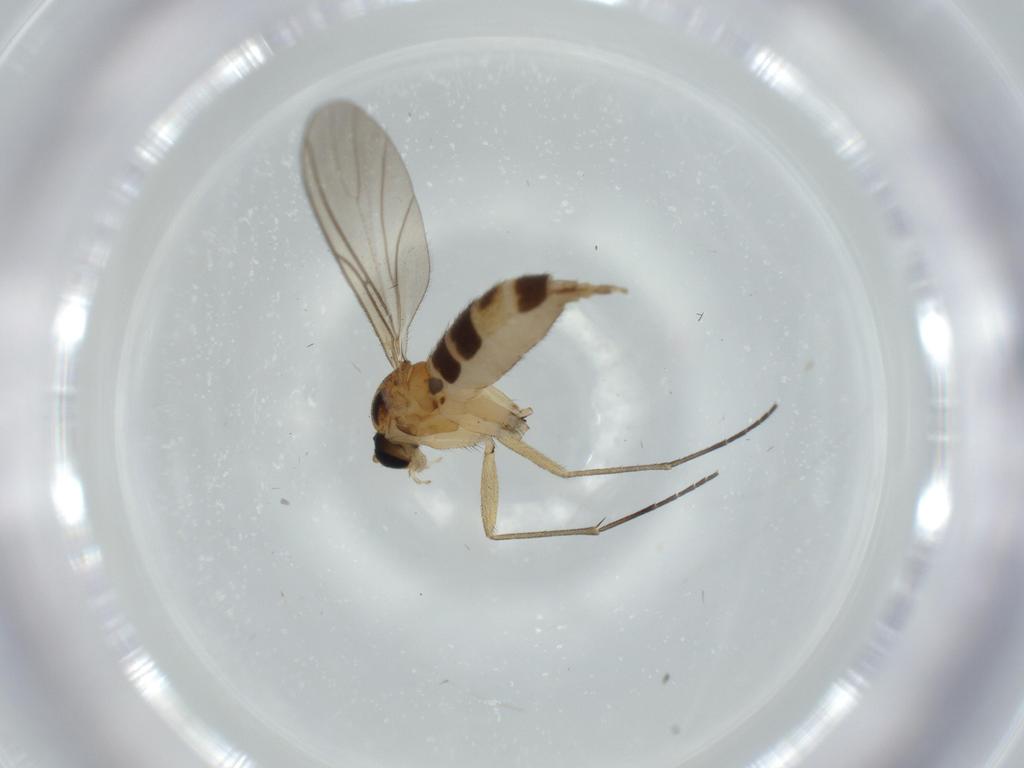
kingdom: Animalia
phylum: Arthropoda
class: Insecta
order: Diptera
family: Sciaridae
